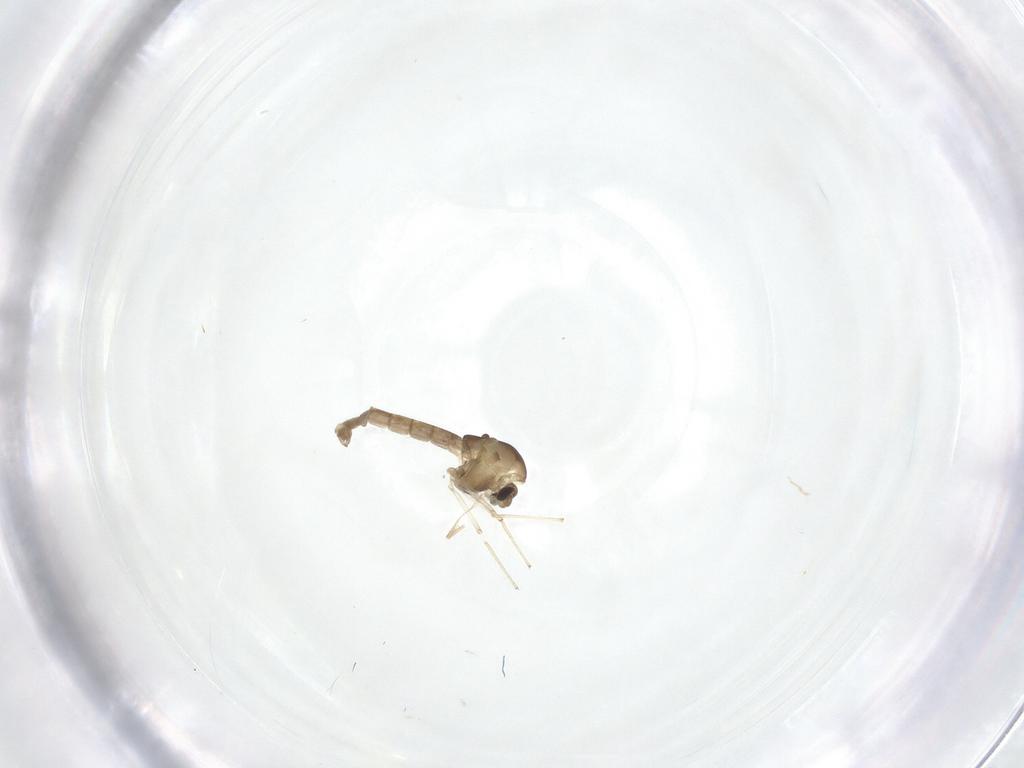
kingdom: Animalia
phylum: Arthropoda
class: Insecta
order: Diptera
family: Chironomidae
